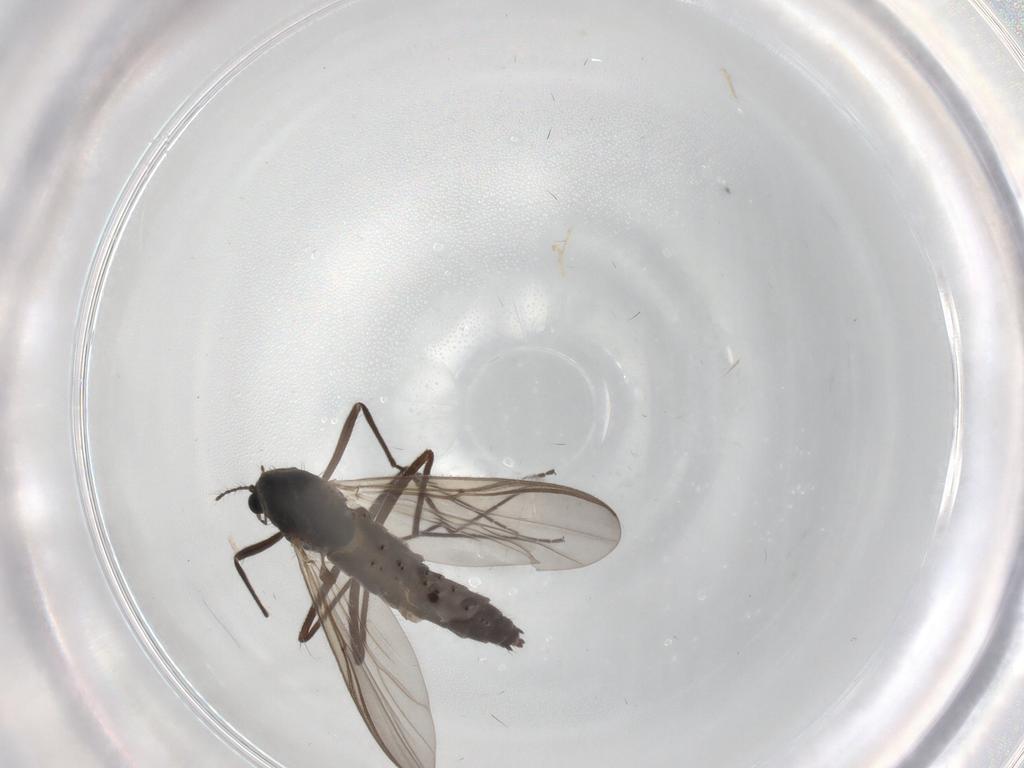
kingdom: Animalia
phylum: Arthropoda
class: Insecta
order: Diptera
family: Chironomidae
